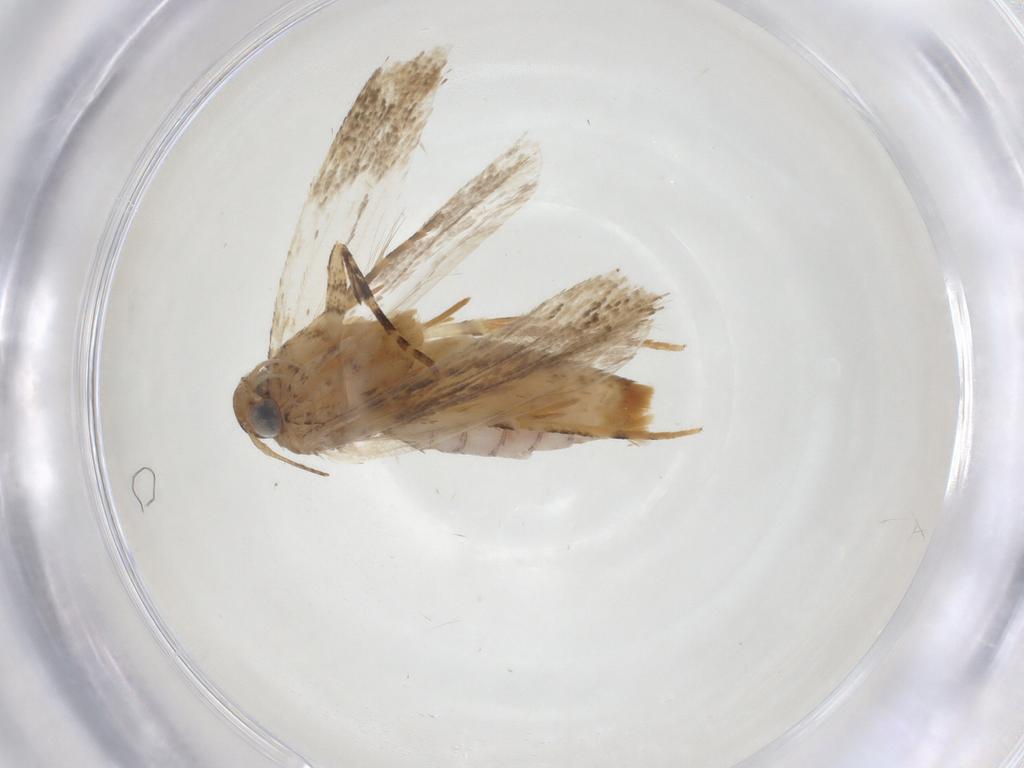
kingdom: Animalia
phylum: Arthropoda
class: Insecta
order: Lepidoptera
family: Gelechiidae
